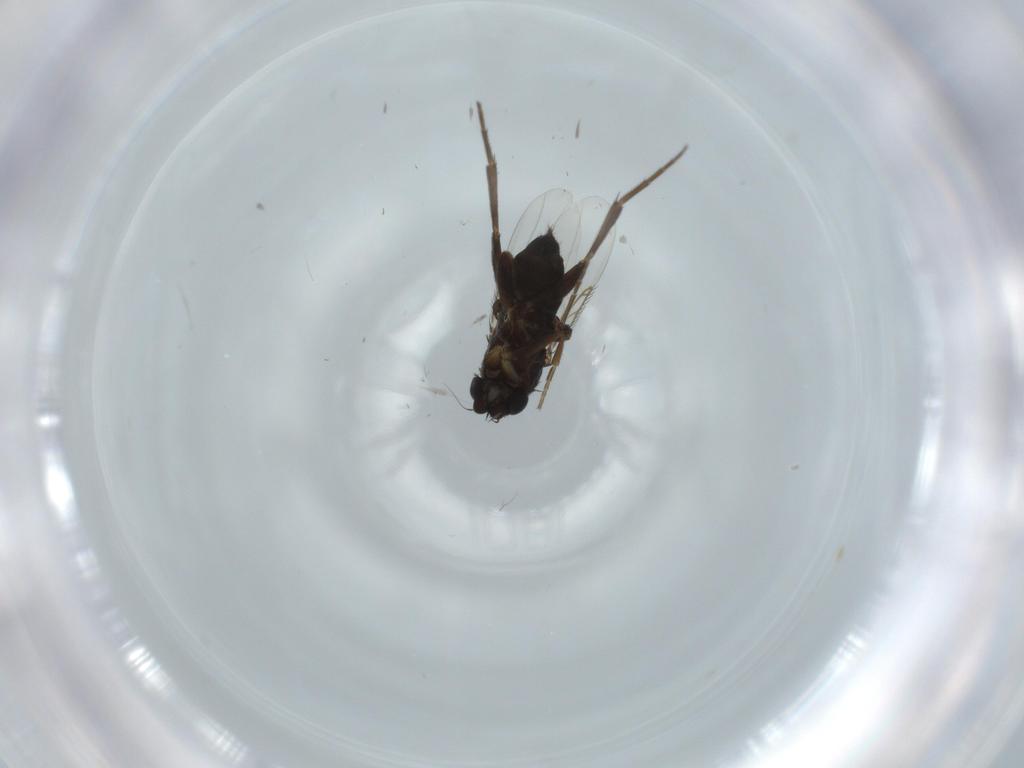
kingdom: Animalia
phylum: Arthropoda
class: Insecta
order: Diptera
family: Phoridae
